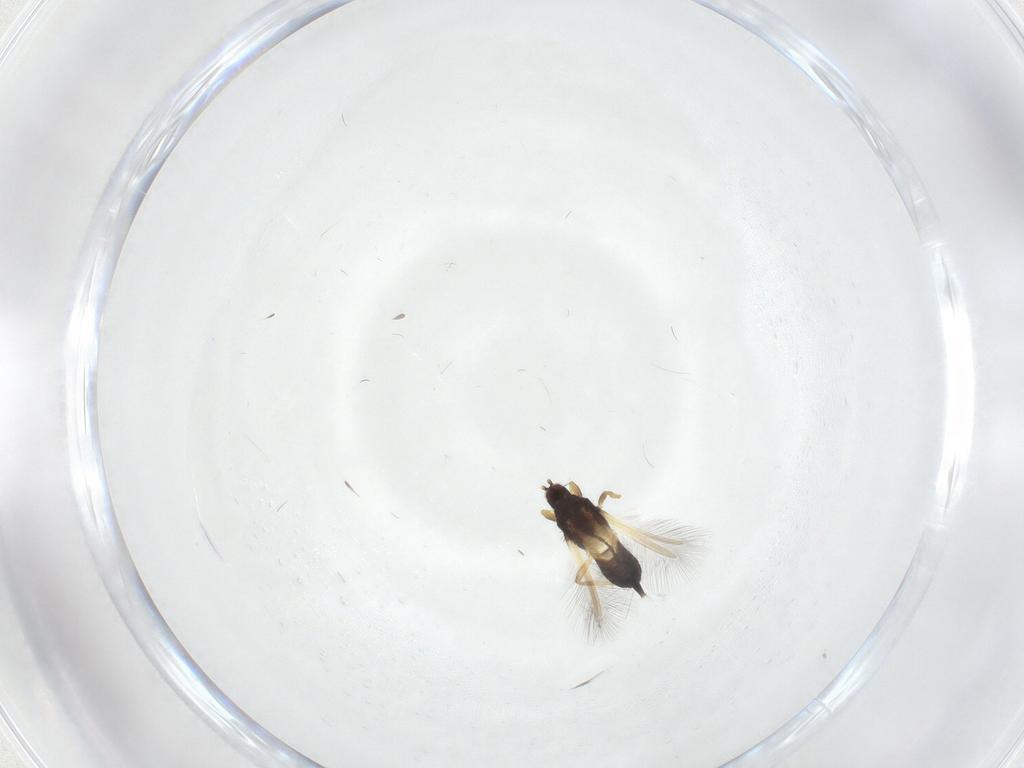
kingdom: Animalia
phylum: Arthropoda
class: Insecta
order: Thysanoptera
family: Phlaeothripidae
